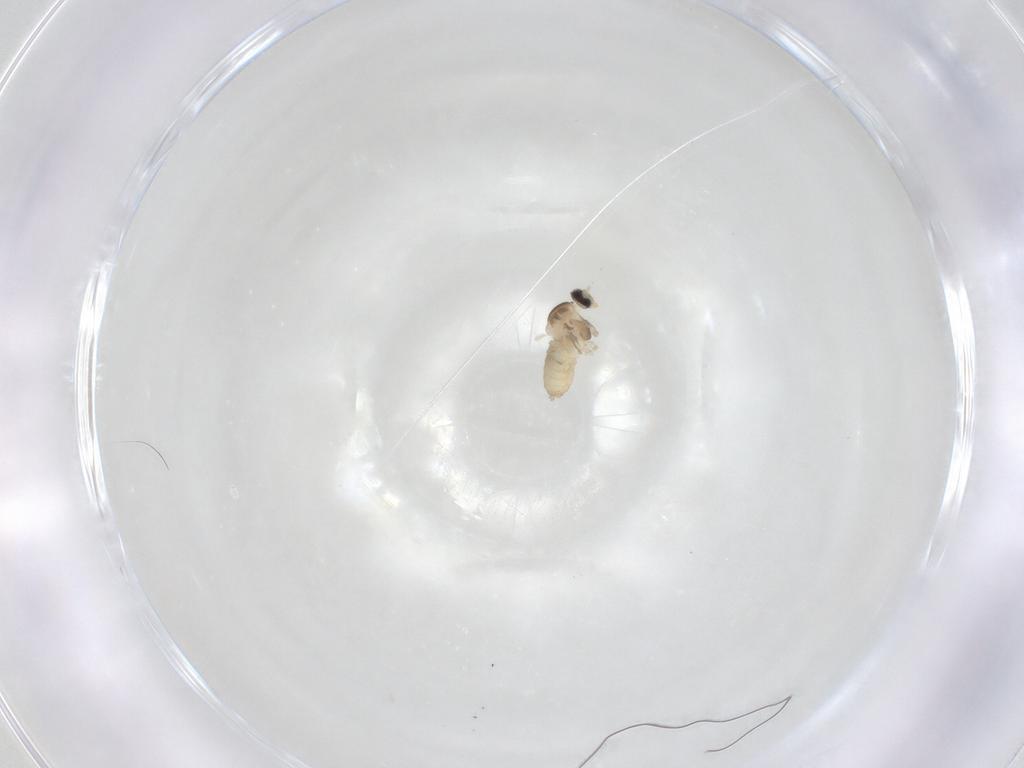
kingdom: Animalia
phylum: Arthropoda
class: Insecta
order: Diptera
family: Cecidomyiidae
